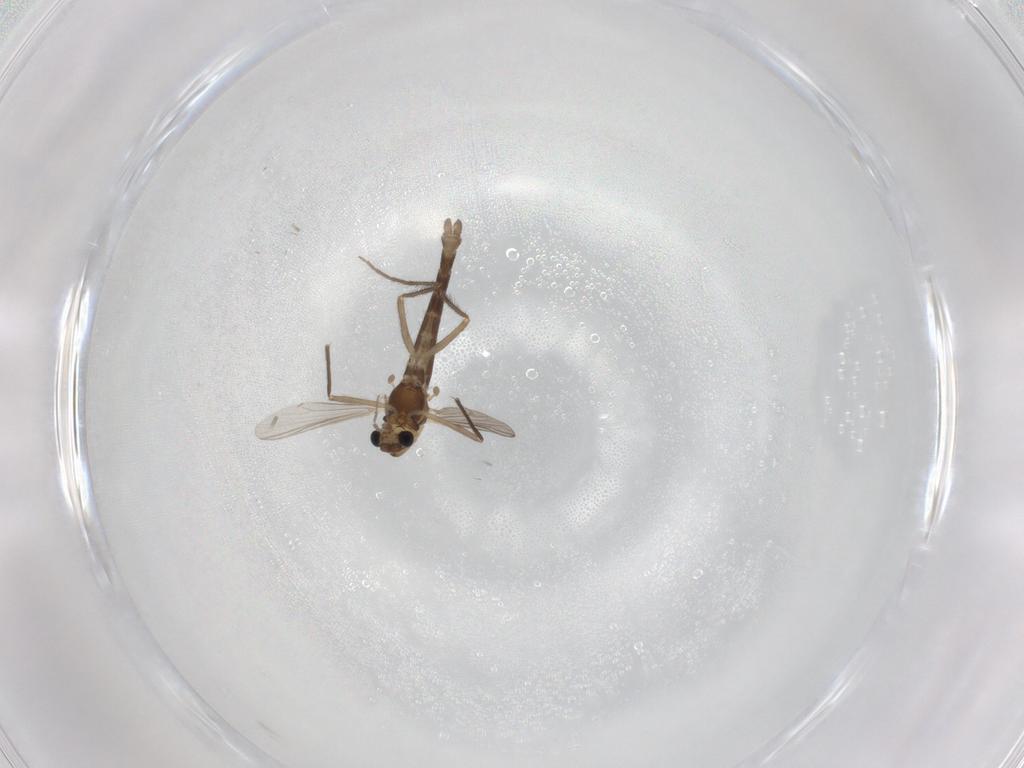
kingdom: Animalia
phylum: Arthropoda
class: Insecta
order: Diptera
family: Chironomidae
